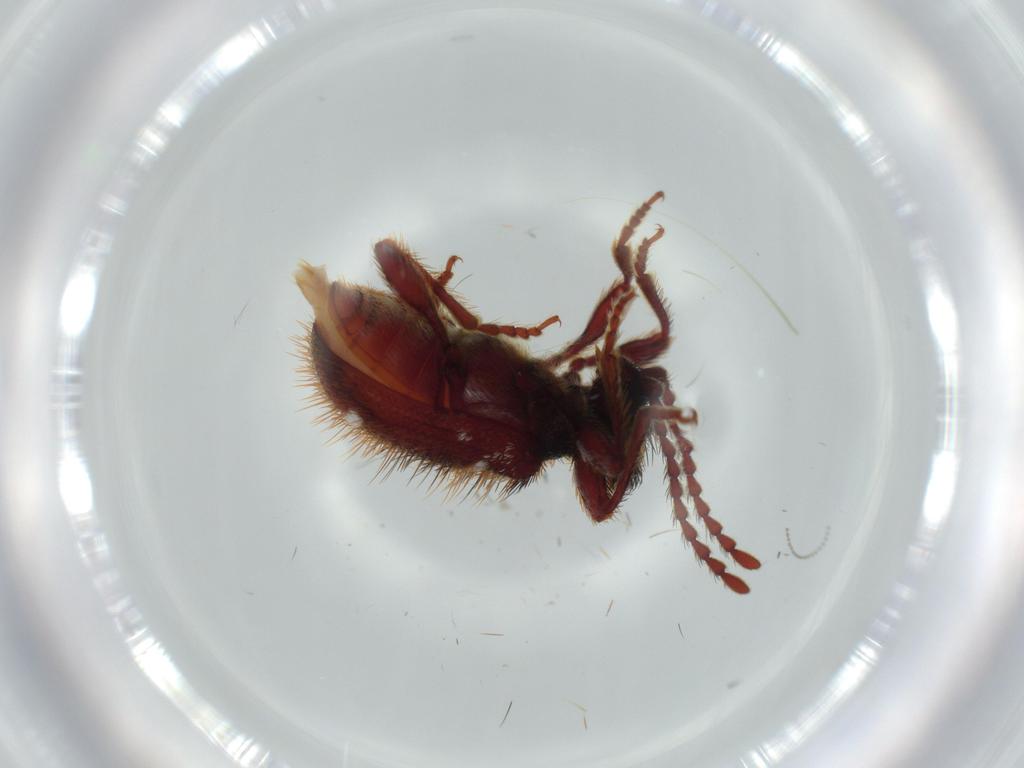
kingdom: Animalia
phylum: Arthropoda
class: Insecta
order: Coleoptera
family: Ptinidae
